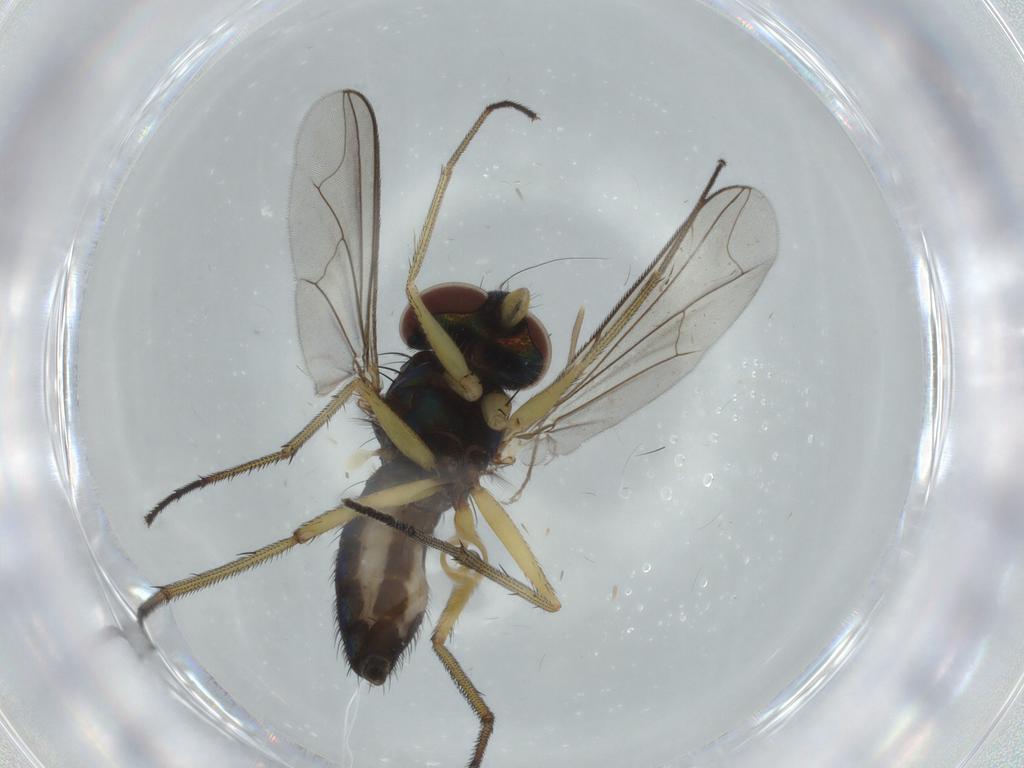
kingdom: Animalia
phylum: Arthropoda
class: Insecta
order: Diptera
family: Dolichopodidae
